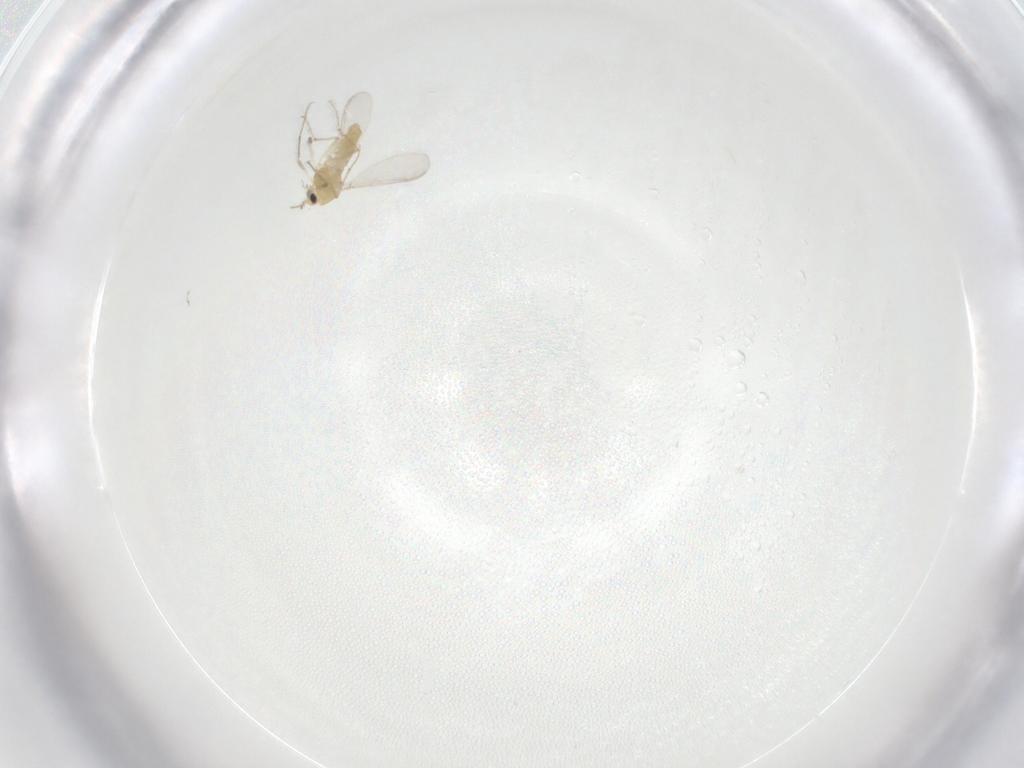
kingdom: Animalia
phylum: Arthropoda
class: Insecta
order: Diptera
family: Chironomidae
